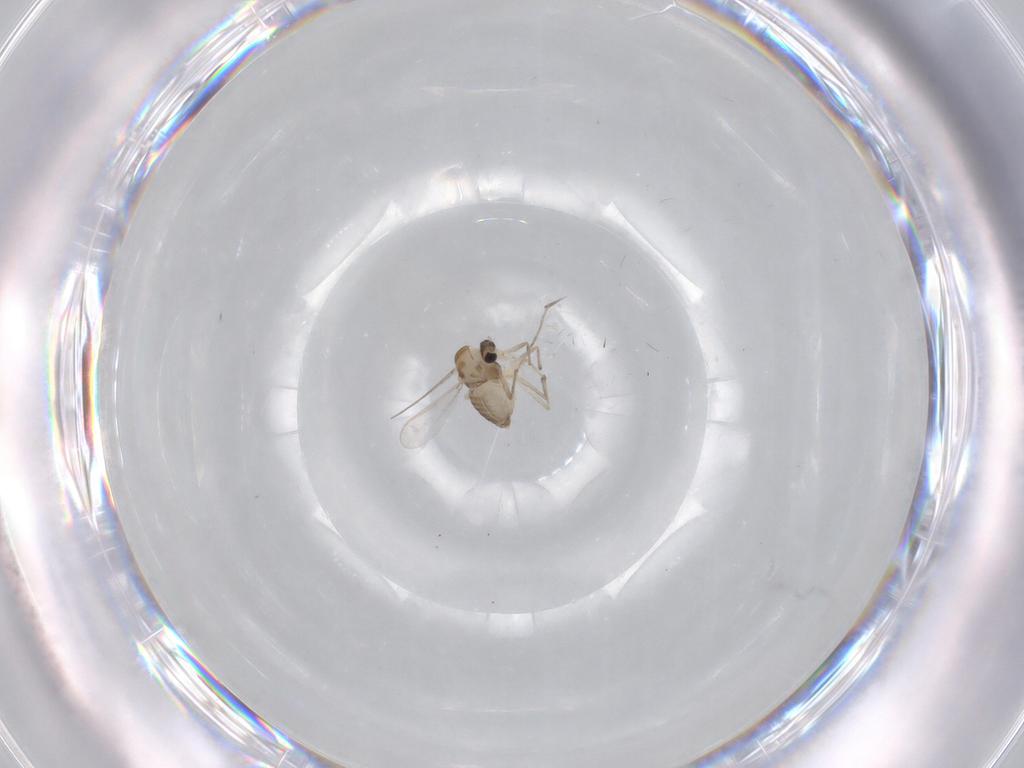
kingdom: Animalia
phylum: Arthropoda
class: Insecta
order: Diptera
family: Chironomidae
